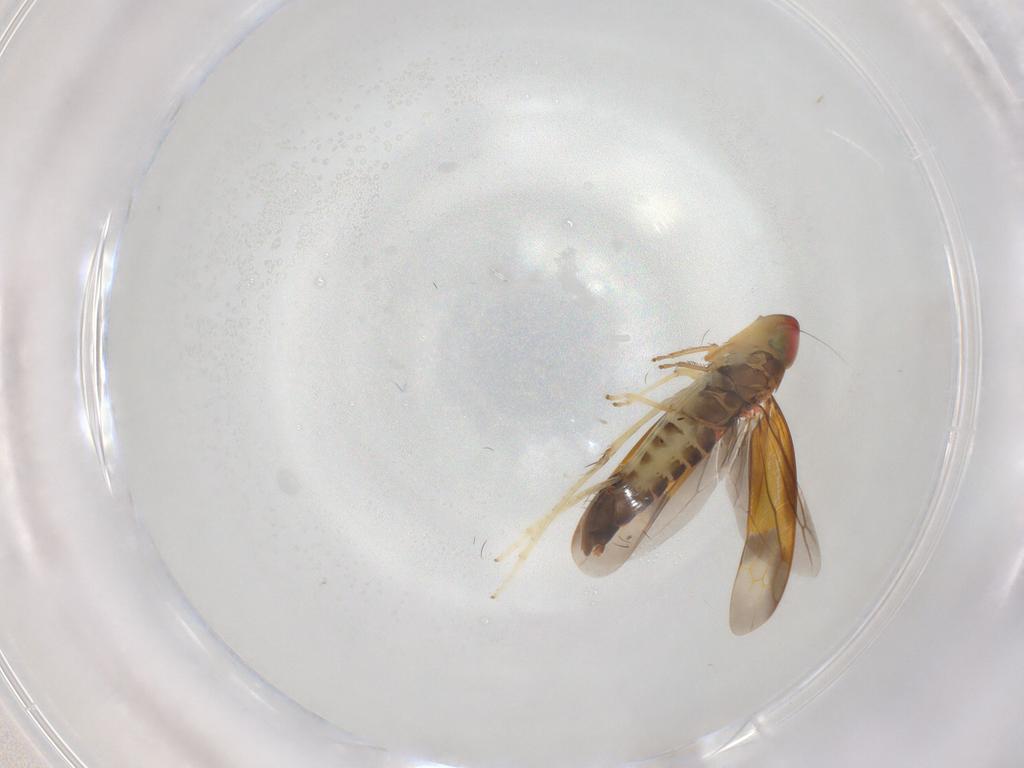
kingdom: Animalia
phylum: Arthropoda
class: Insecta
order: Hemiptera
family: Cicadellidae
